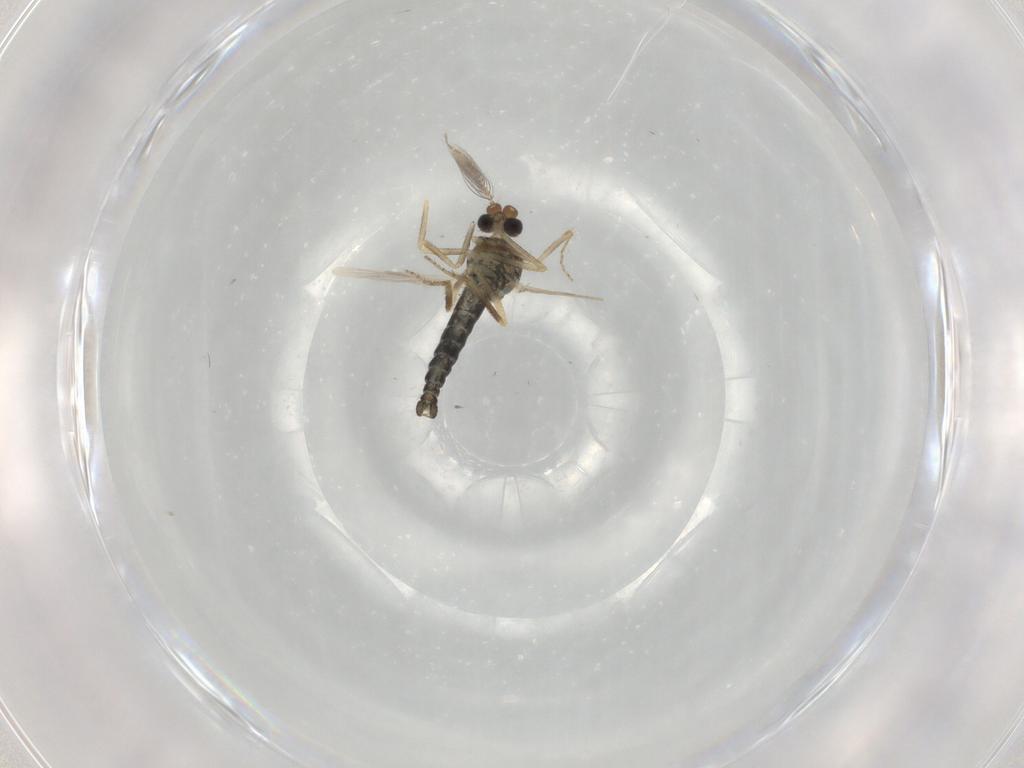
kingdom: Animalia
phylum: Arthropoda
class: Insecta
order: Diptera
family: Ceratopogonidae
